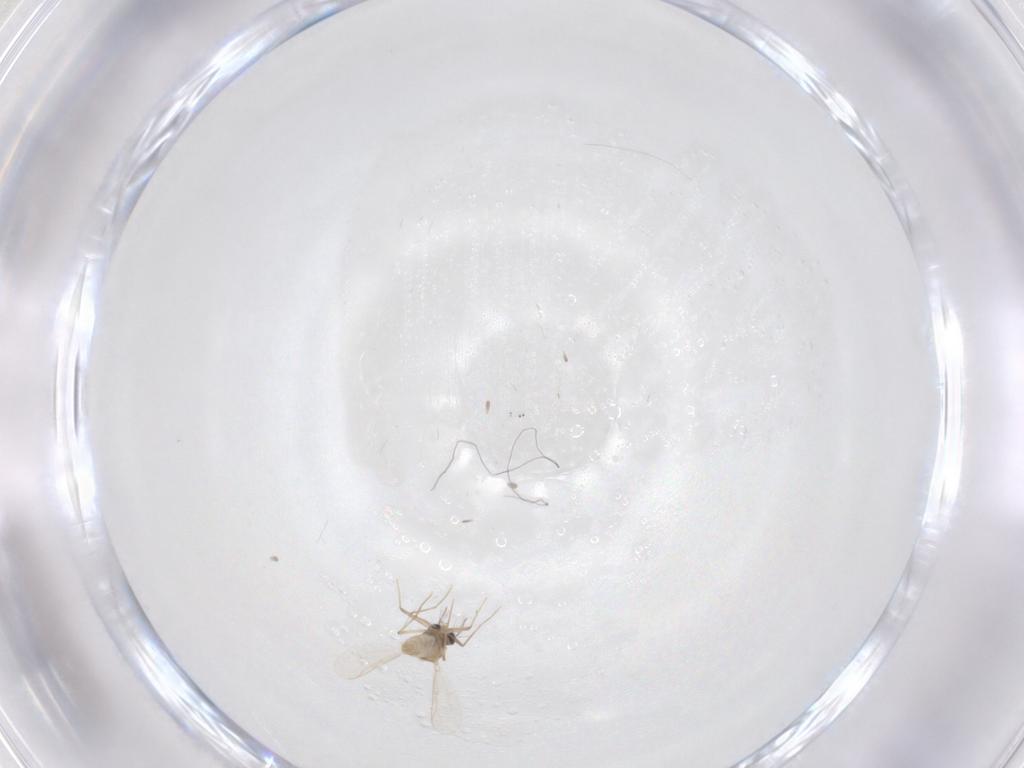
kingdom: Animalia
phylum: Arthropoda
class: Insecta
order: Diptera
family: Chironomidae
